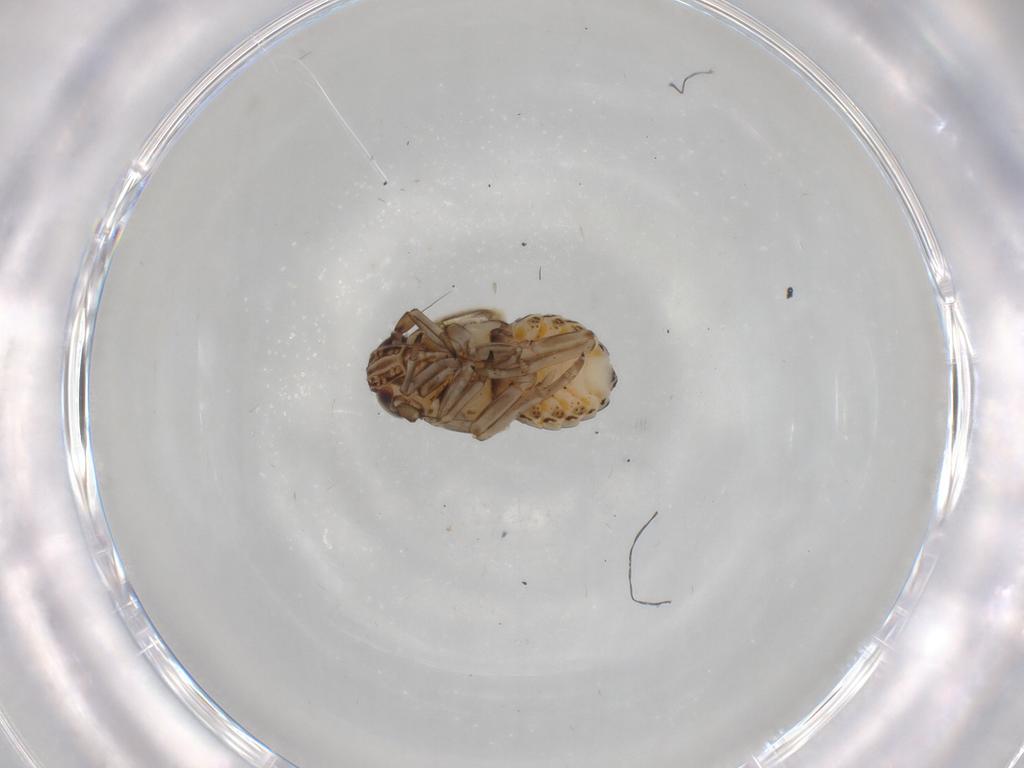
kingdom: Animalia
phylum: Arthropoda
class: Insecta
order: Hemiptera
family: Delphacidae
